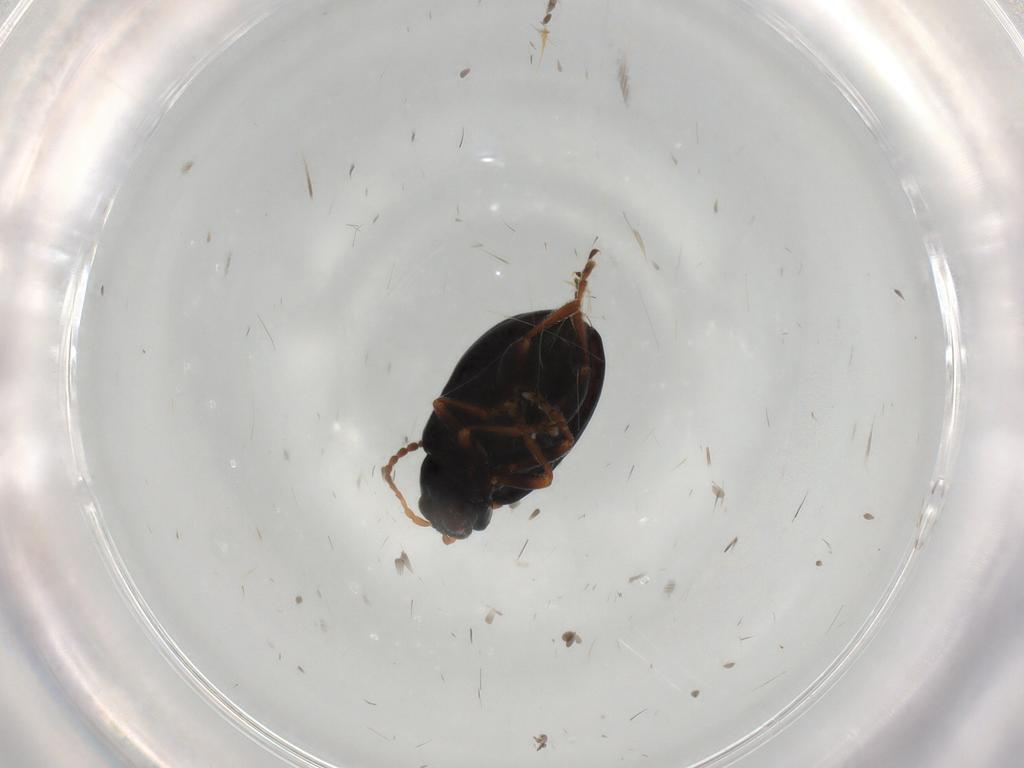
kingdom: Animalia
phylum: Arthropoda
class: Insecta
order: Coleoptera
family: Chrysomelidae
